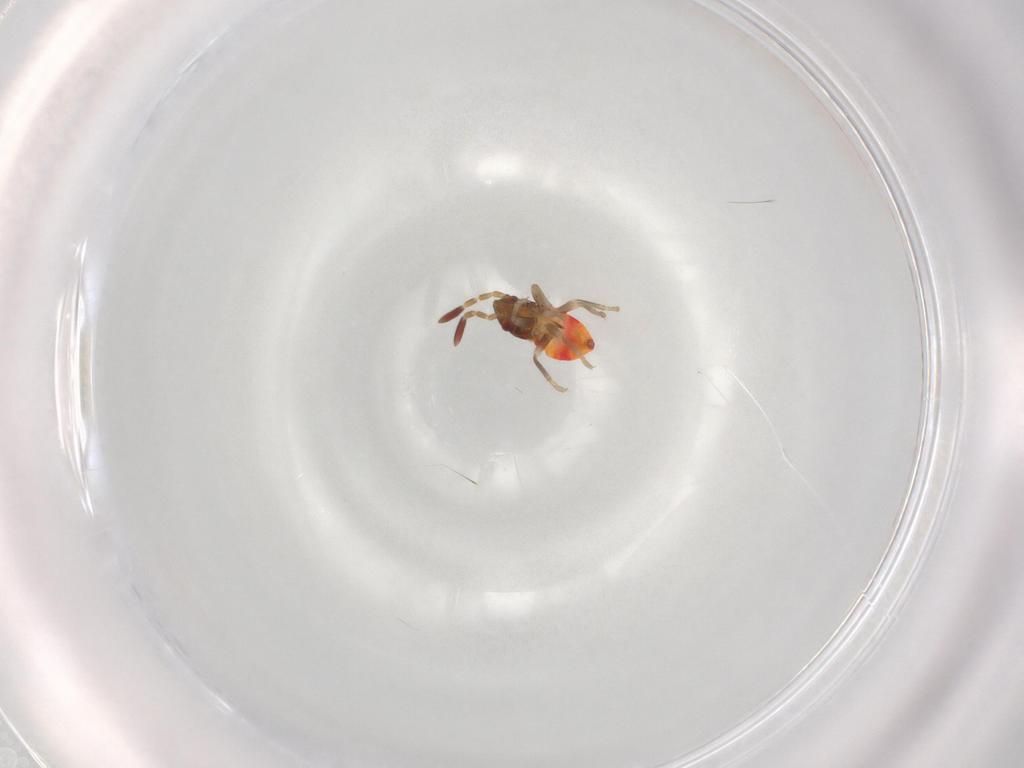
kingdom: Animalia
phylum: Arthropoda
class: Insecta
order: Hemiptera
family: Rhyparochromidae
